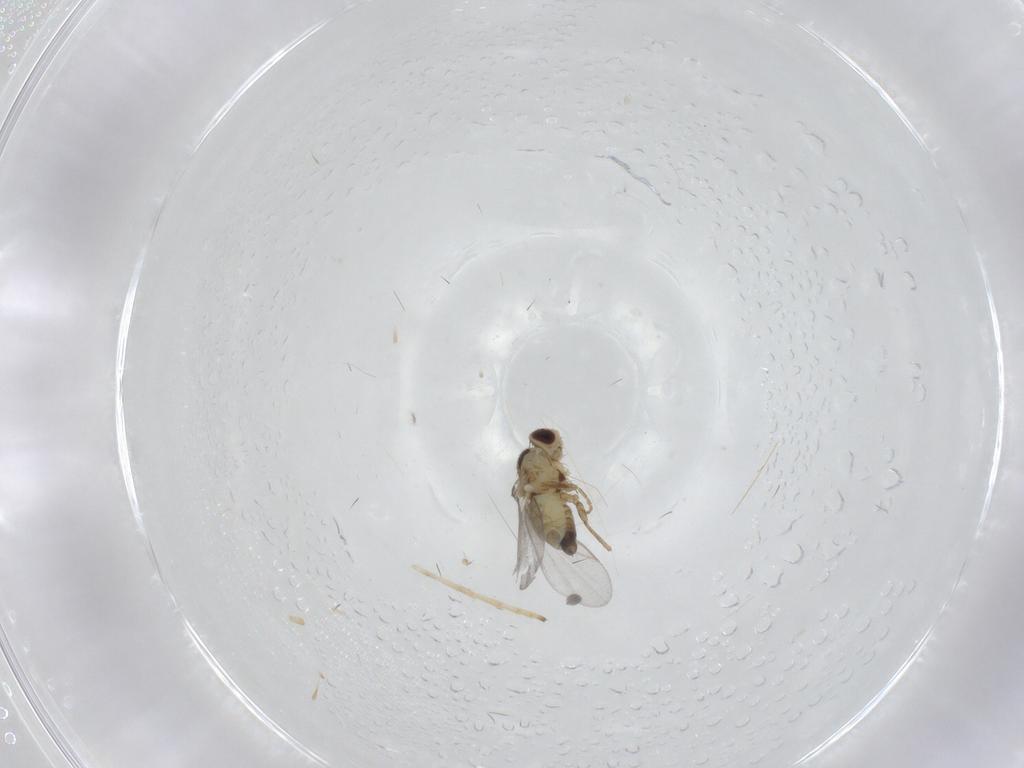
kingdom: Animalia
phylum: Arthropoda
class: Insecta
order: Diptera
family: Agromyzidae
